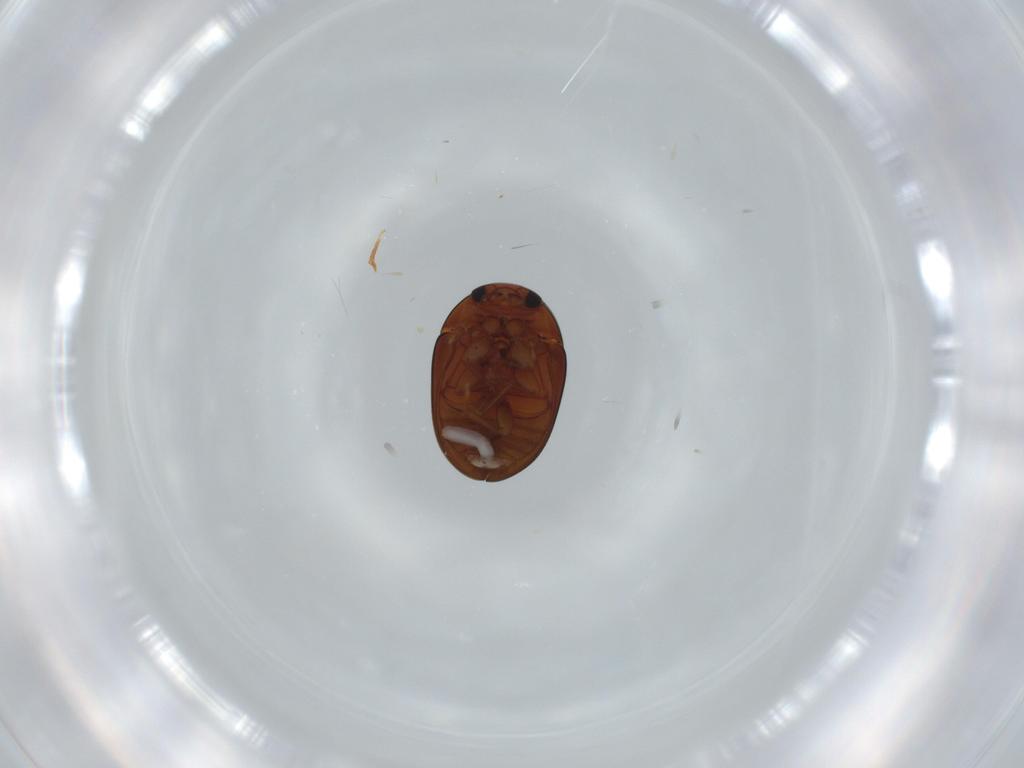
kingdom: Animalia
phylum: Arthropoda
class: Insecta
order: Coleoptera
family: Phalacridae
